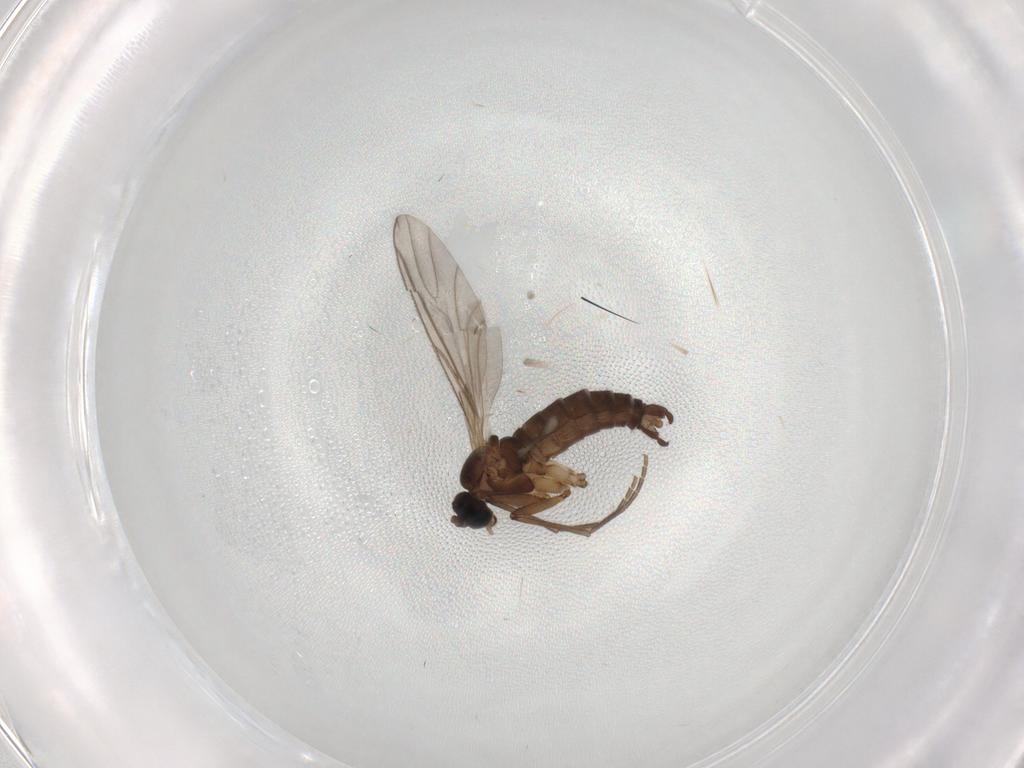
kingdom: Animalia
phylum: Arthropoda
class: Insecta
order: Diptera
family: Sciaridae
